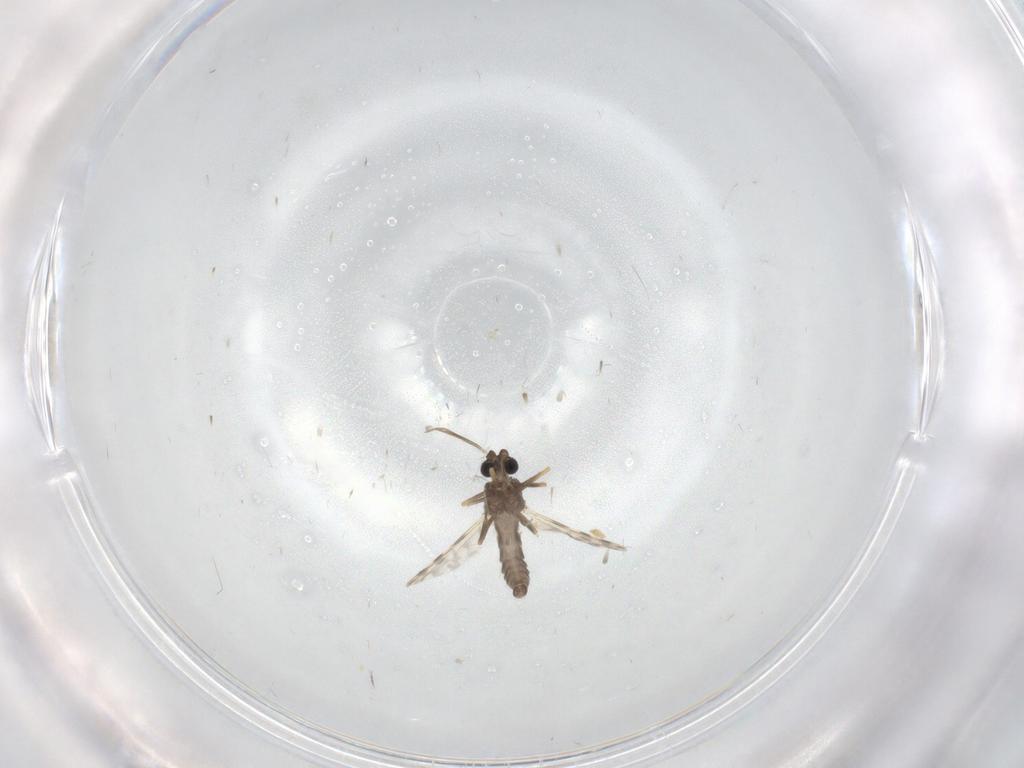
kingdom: Animalia
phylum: Arthropoda
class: Insecta
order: Diptera
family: Ceratopogonidae
